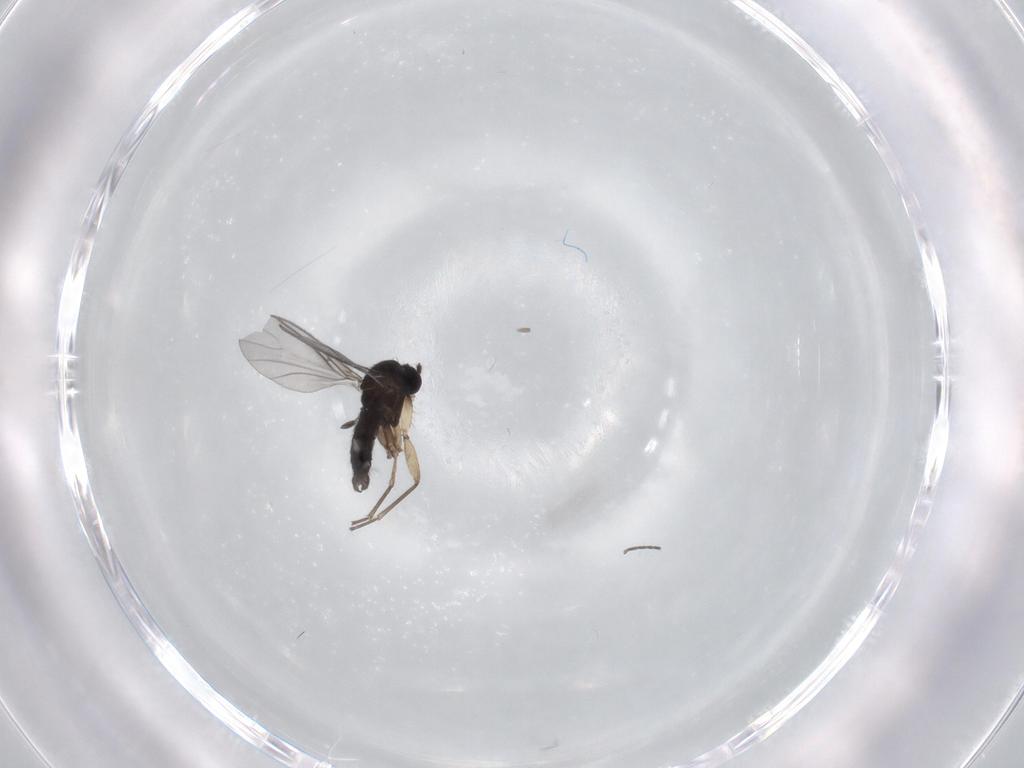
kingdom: Animalia
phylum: Arthropoda
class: Insecta
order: Diptera
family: Sciaridae
